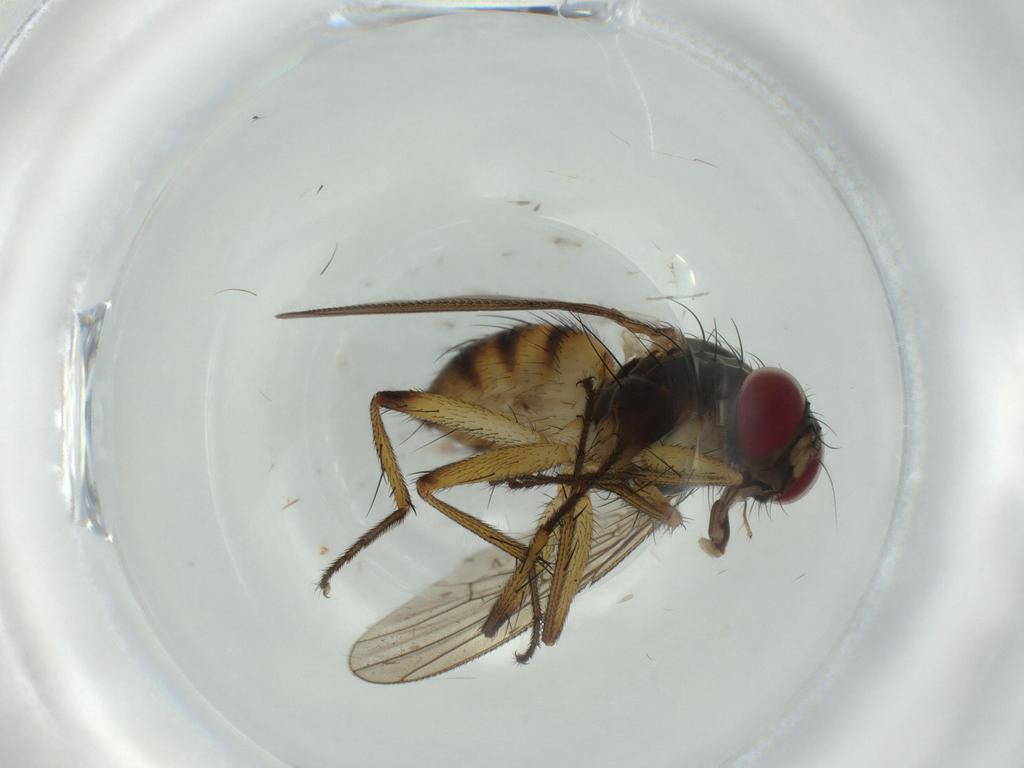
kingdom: Animalia
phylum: Arthropoda
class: Insecta
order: Diptera
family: Muscidae
